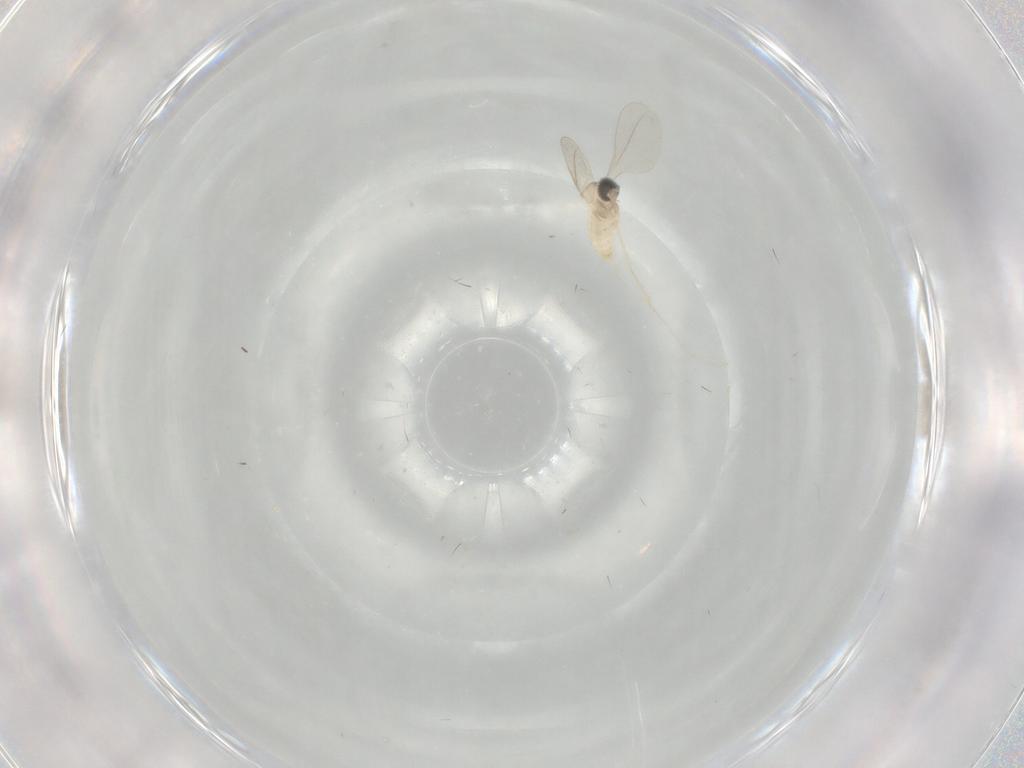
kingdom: Animalia
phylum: Arthropoda
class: Insecta
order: Diptera
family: Cecidomyiidae
